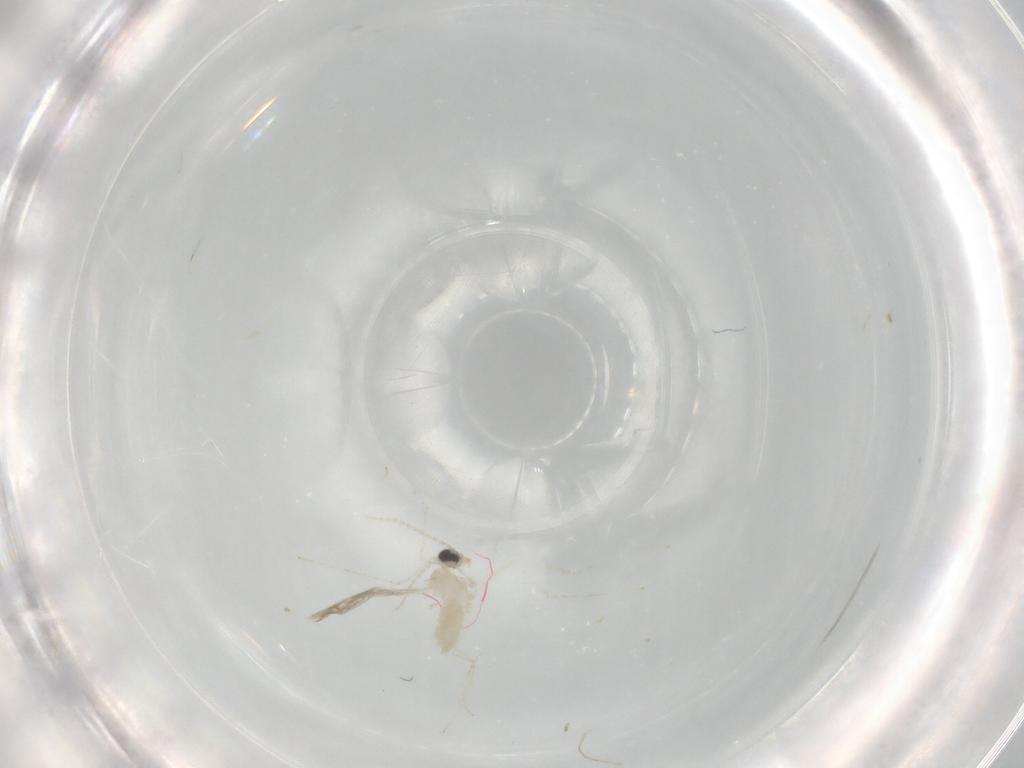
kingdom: Animalia
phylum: Arthropoda
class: Insecta
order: Diptera
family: Cecidomyiidae
